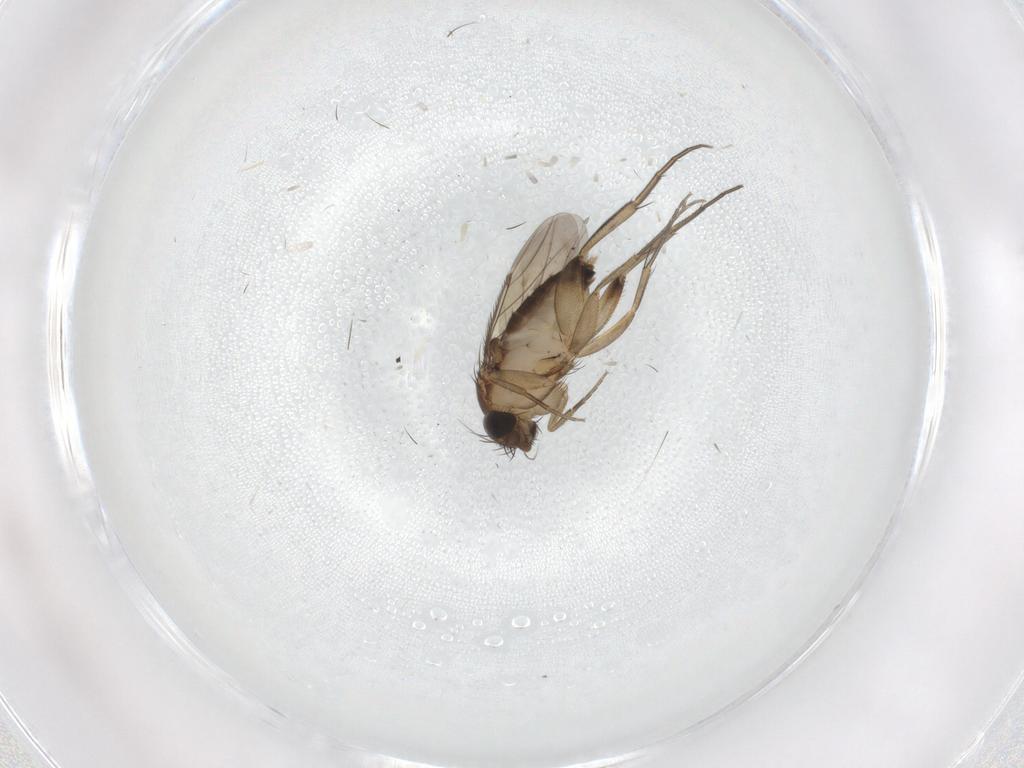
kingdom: Animalia
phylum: Arthropoda
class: Insecta
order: Diptera
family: Phoridae
